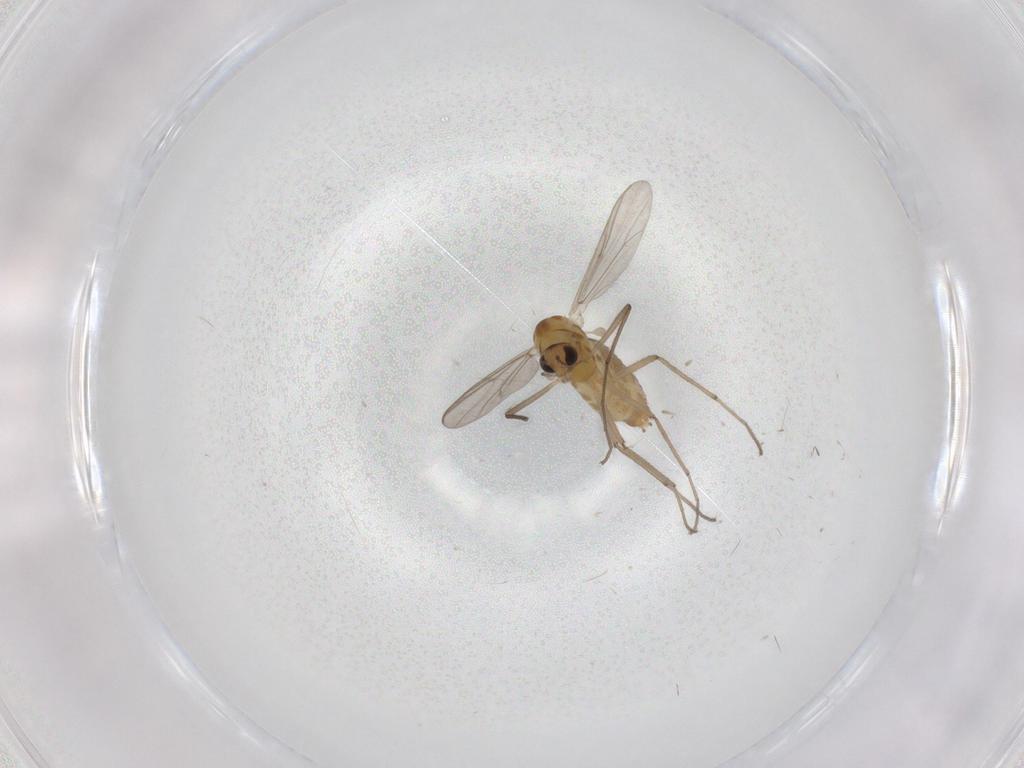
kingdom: Animalia
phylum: Arthropoda
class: Insecta
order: Diptera
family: Chironomidae
